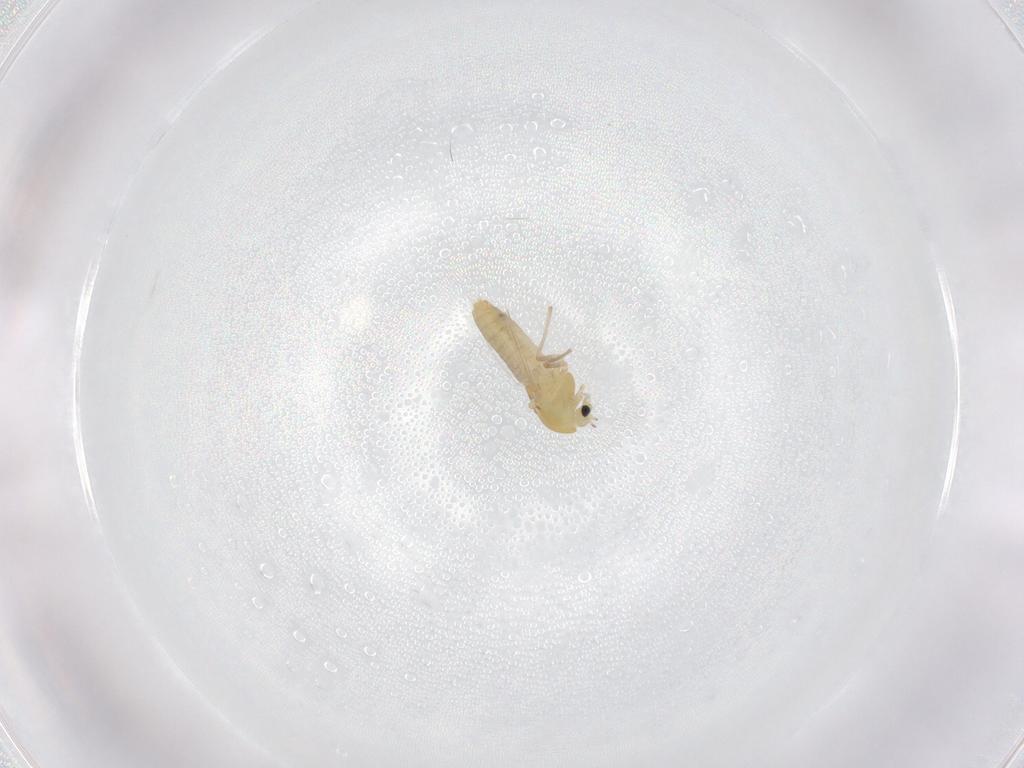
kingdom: Animalia
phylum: Arthropoda
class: Insecta
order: Diptera
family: Chironomidae
